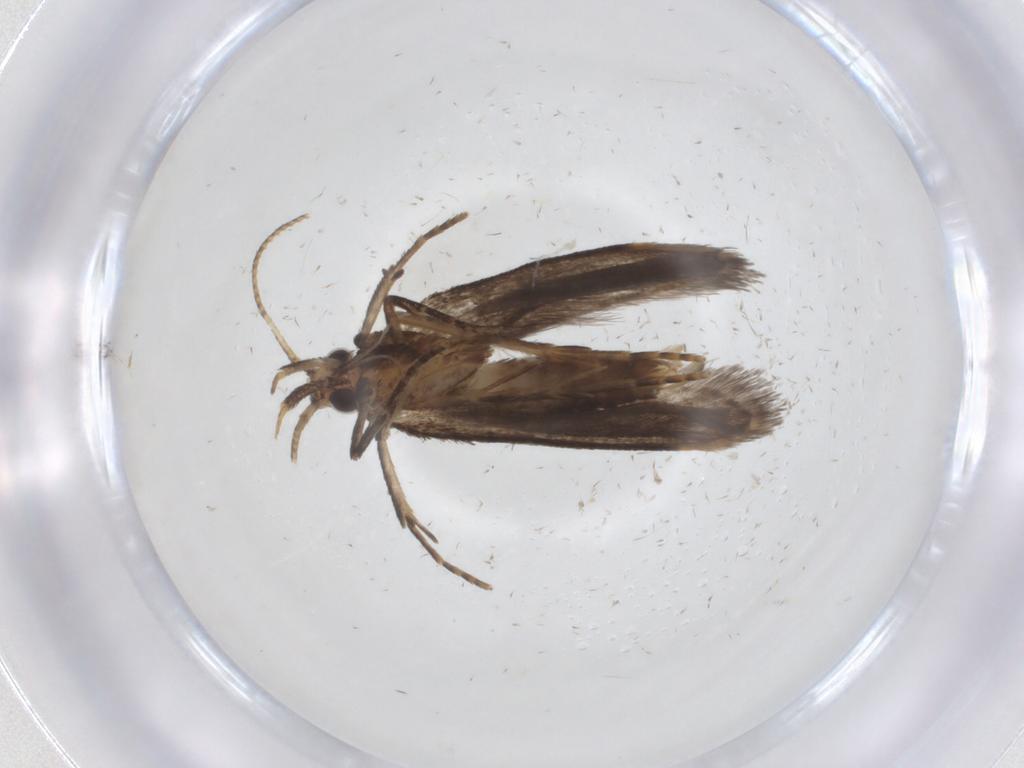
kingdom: Animalia
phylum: Arthropoda
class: Insecta
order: Lepidoptera
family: Gelechiidae
